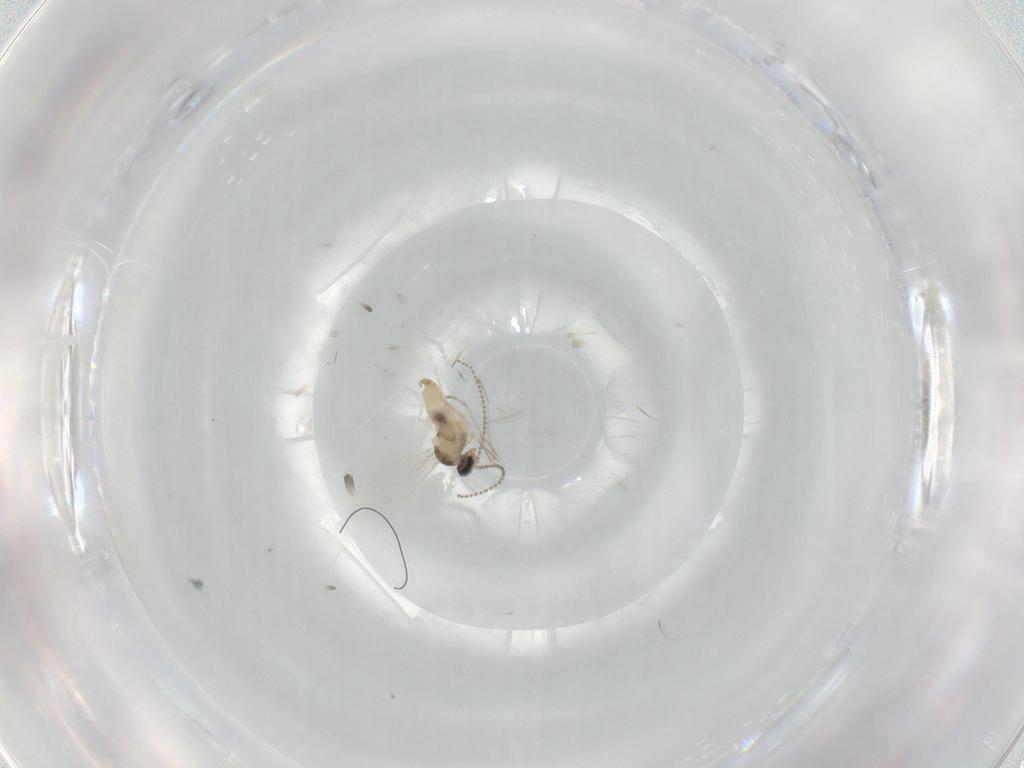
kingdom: Animalia
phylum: Arthropoda
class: Insecta
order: Diptera
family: Cecidomyiidae
